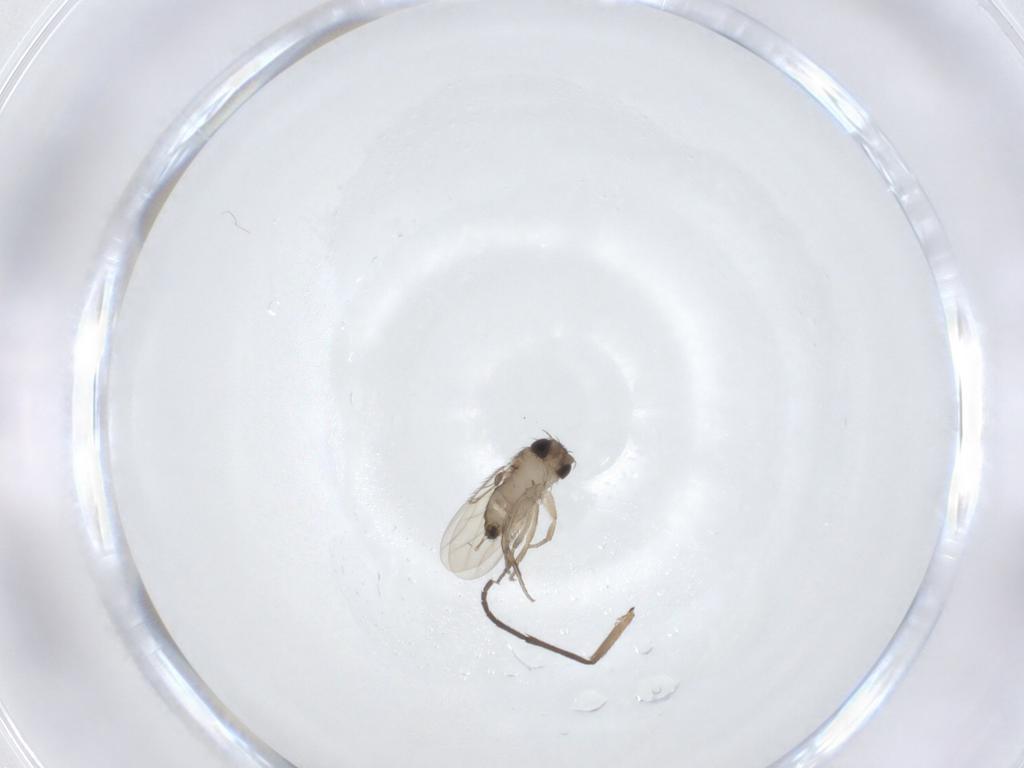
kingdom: Animalia
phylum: Arthropoda
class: Insecta
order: Diptera
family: Phoridae
